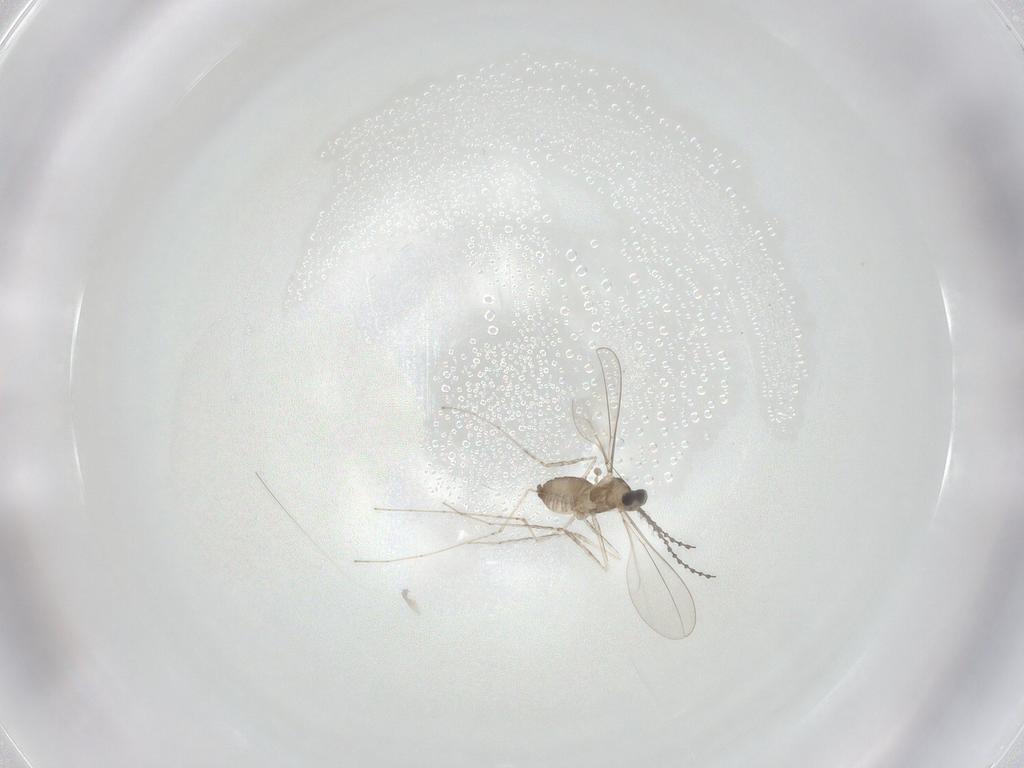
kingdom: Animalia
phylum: Arthropoda
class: Insecta
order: Diptera
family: Cecidomyiidae
